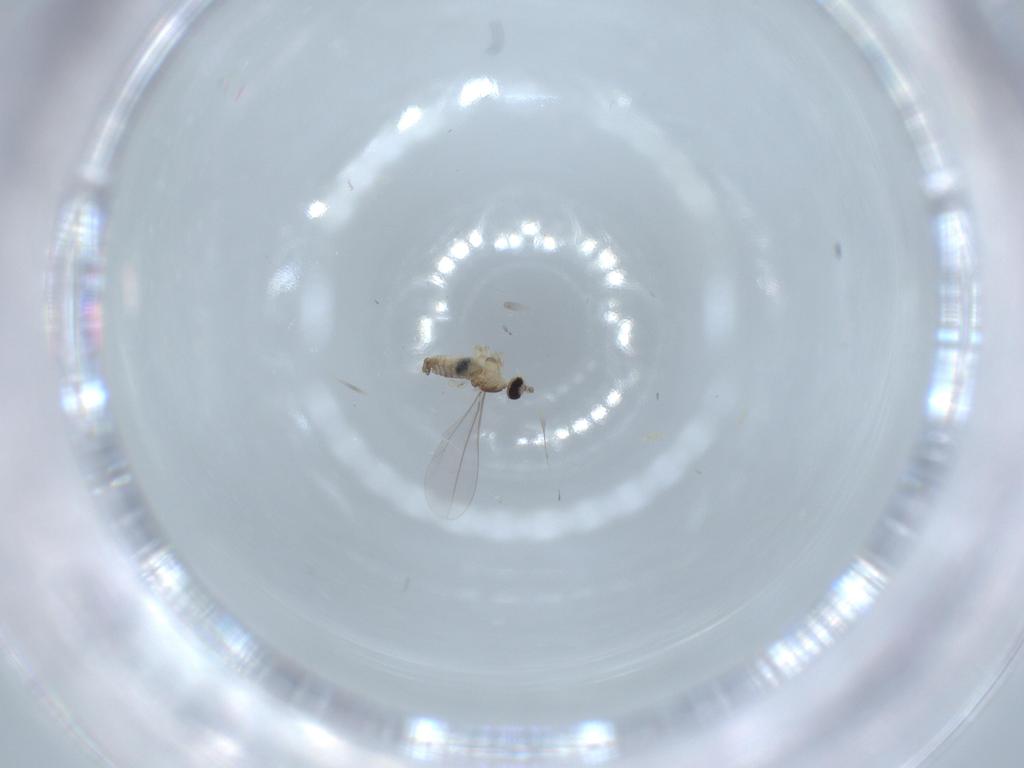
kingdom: Animalia
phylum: Arthropoda
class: Insecta
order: Diptera
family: Cecidomyiidae
